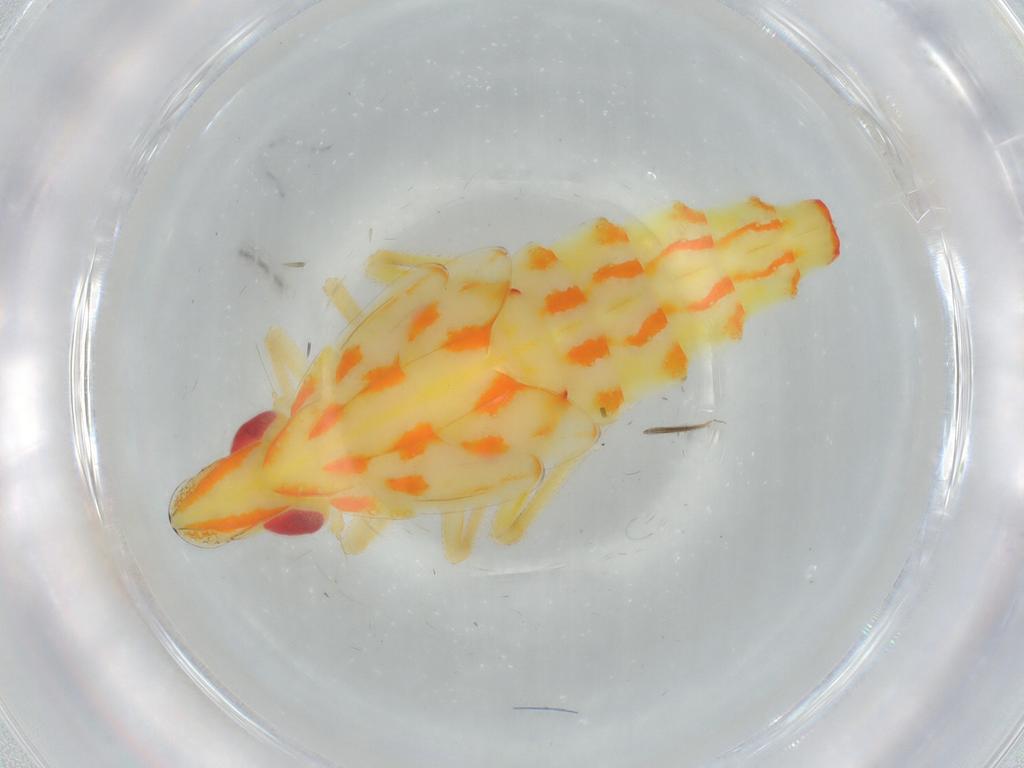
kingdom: Animalia
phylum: Arthropoda
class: Insecta
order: Hemiptera
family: Tropiduchidae
